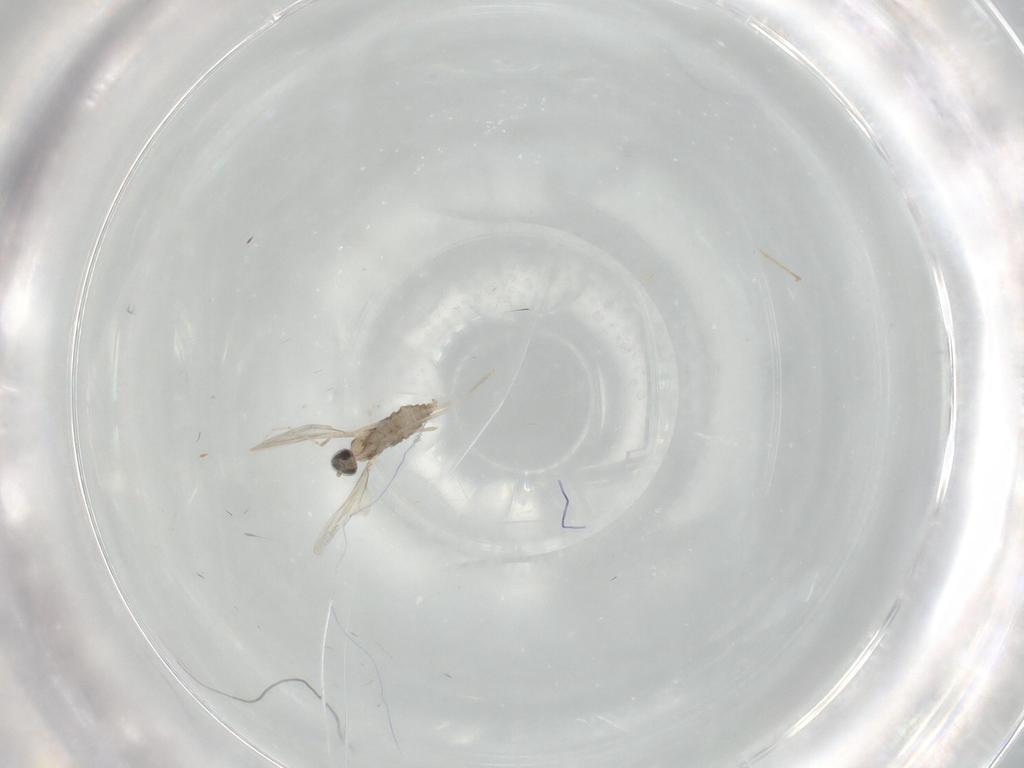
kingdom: Animalia
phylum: Arthropoda
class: Insecta
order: Diptera
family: Cecidomyiidae
